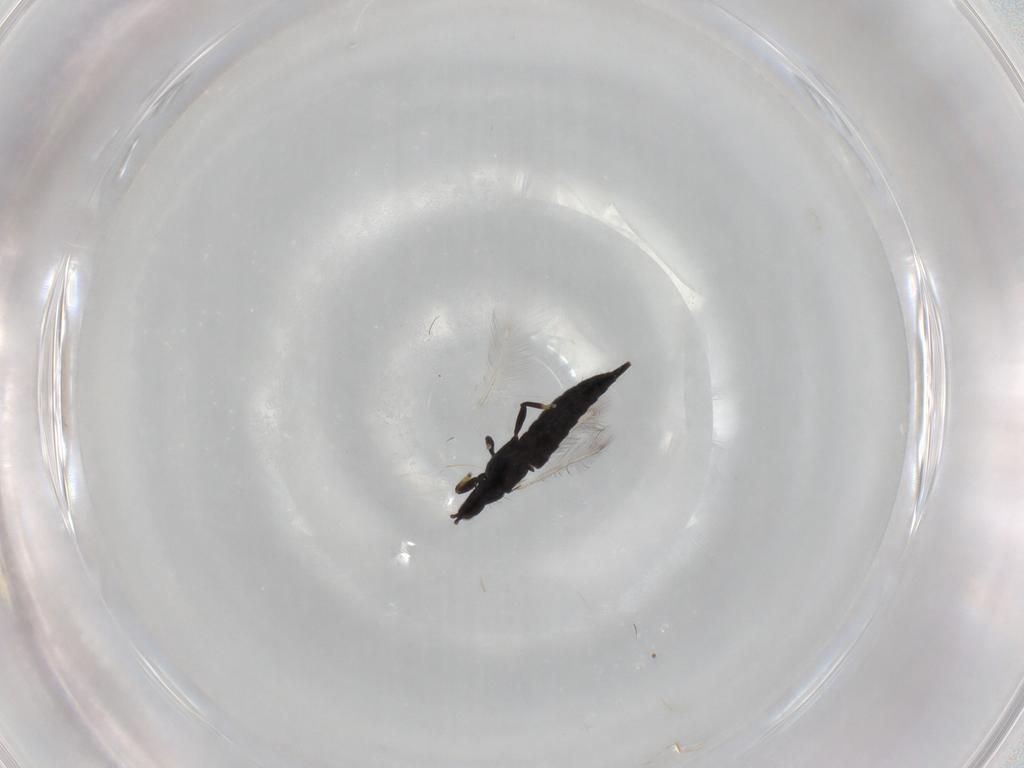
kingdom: Animalia
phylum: Arthropoda
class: Insecta
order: Thysanoptera
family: Phlaeothripidae
